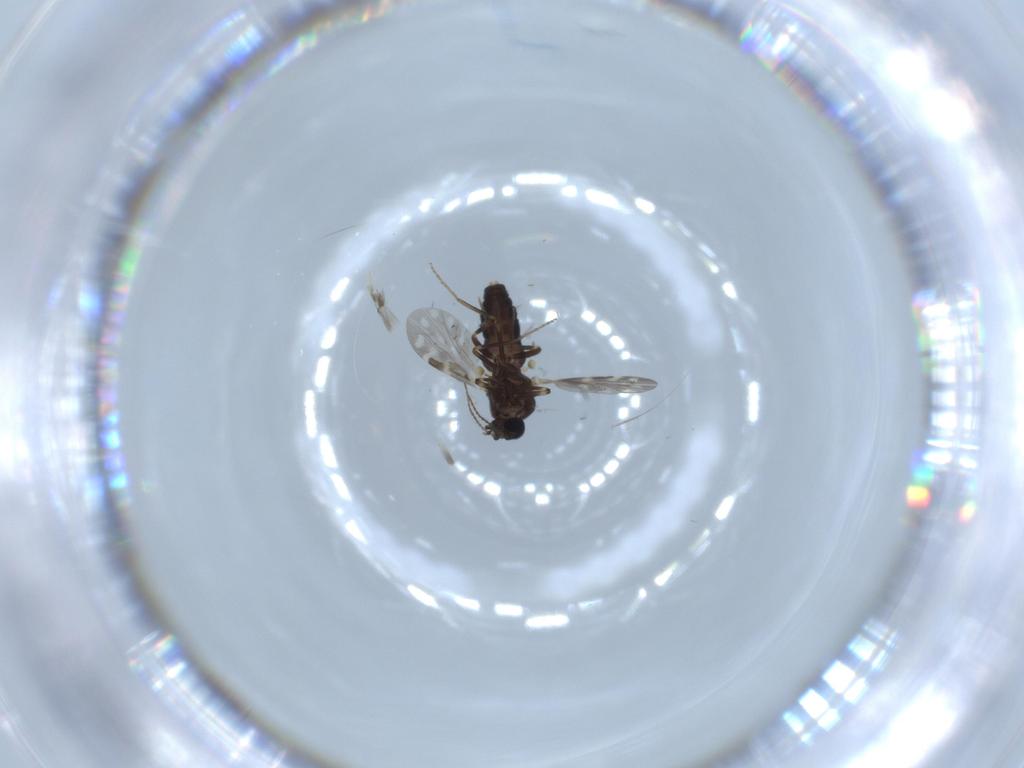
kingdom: Animalia
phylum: Arthropoda
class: Insecta
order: Diptera
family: Ceratopogonidae
